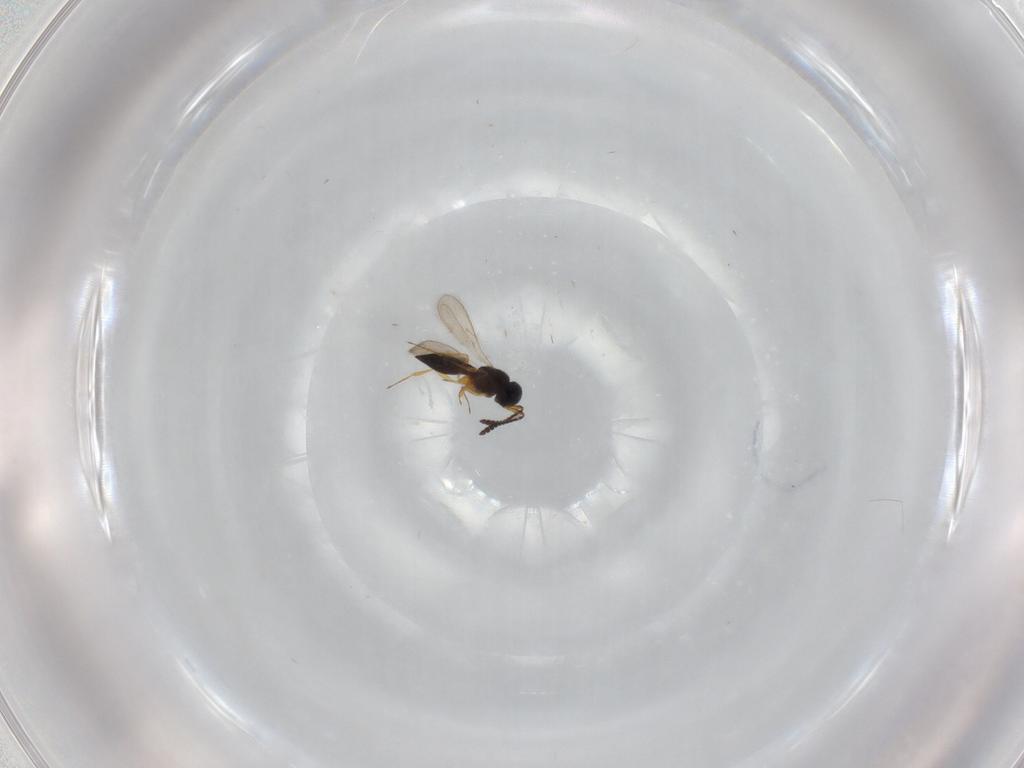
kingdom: Animalia
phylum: Arthropoda
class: Insecta
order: Hymenoptera
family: Scelionidae
